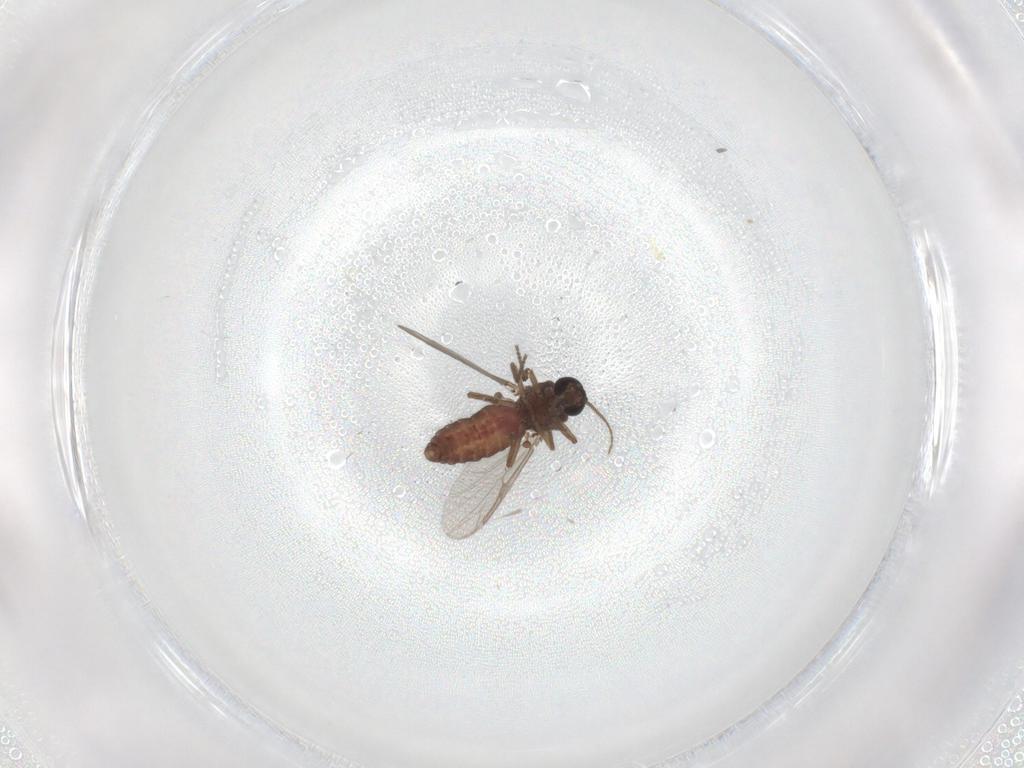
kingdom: Animalia
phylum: Arthropoda
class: Insecta
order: Diptera
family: Phoridae
